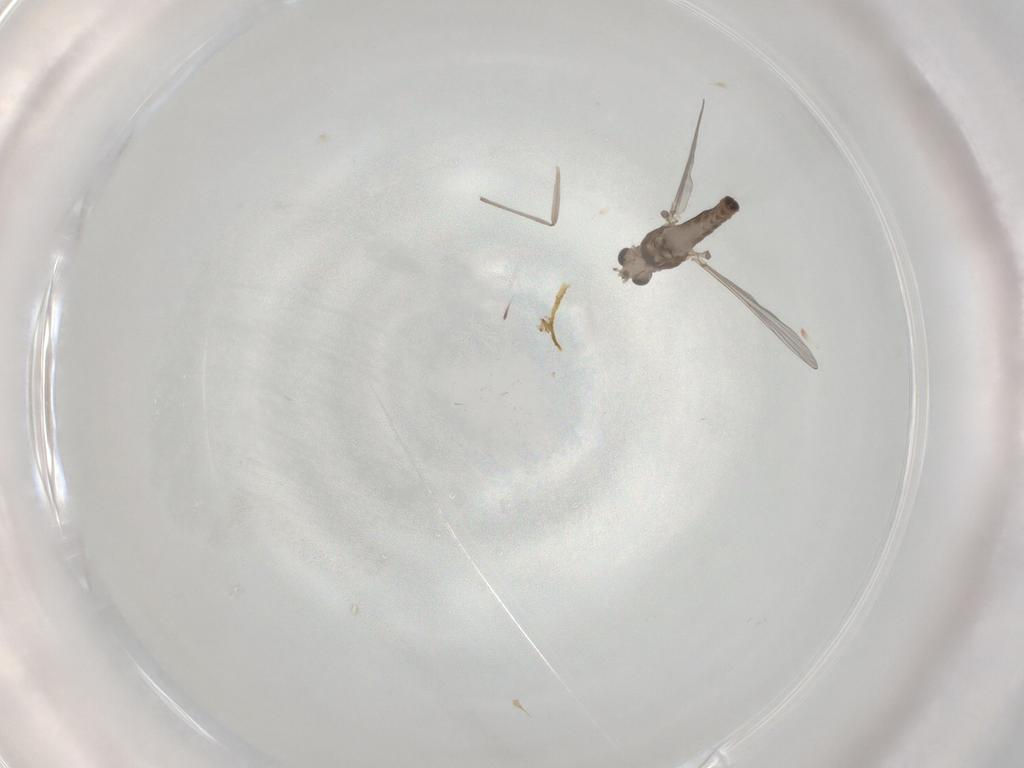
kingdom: Animalia
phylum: Arthropoda
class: Insecta
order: Diptera
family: Chironomidae
